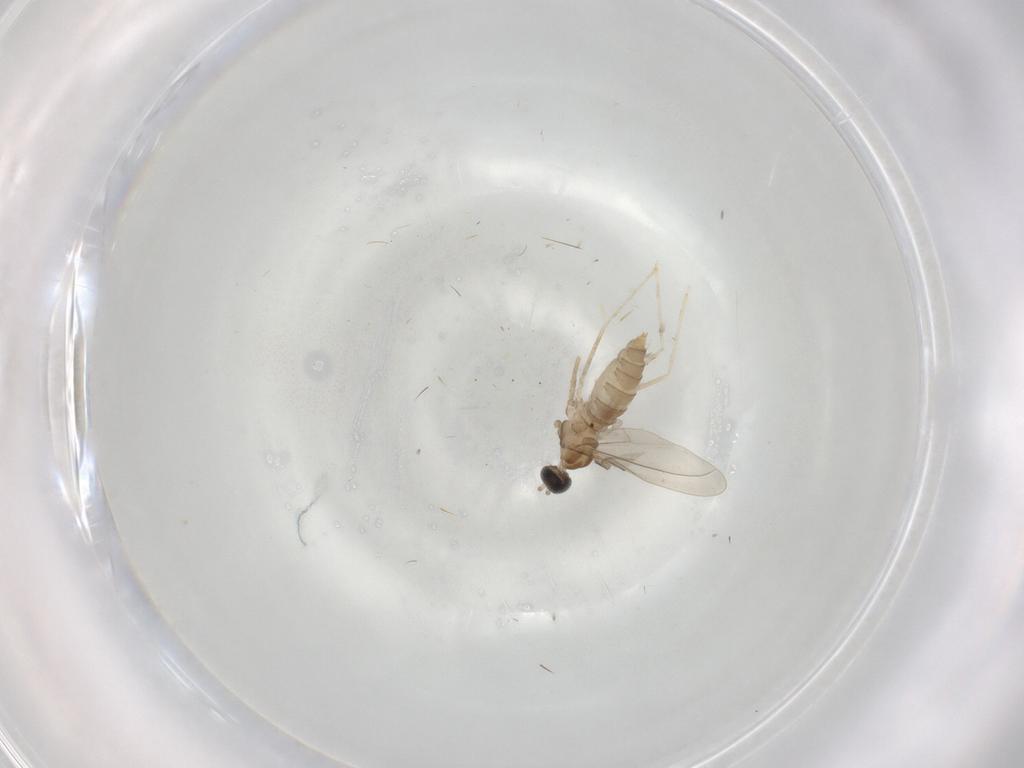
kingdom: Animalia
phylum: Arthropoda
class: Insecta
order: Diptera
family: Cecidomyiidae
